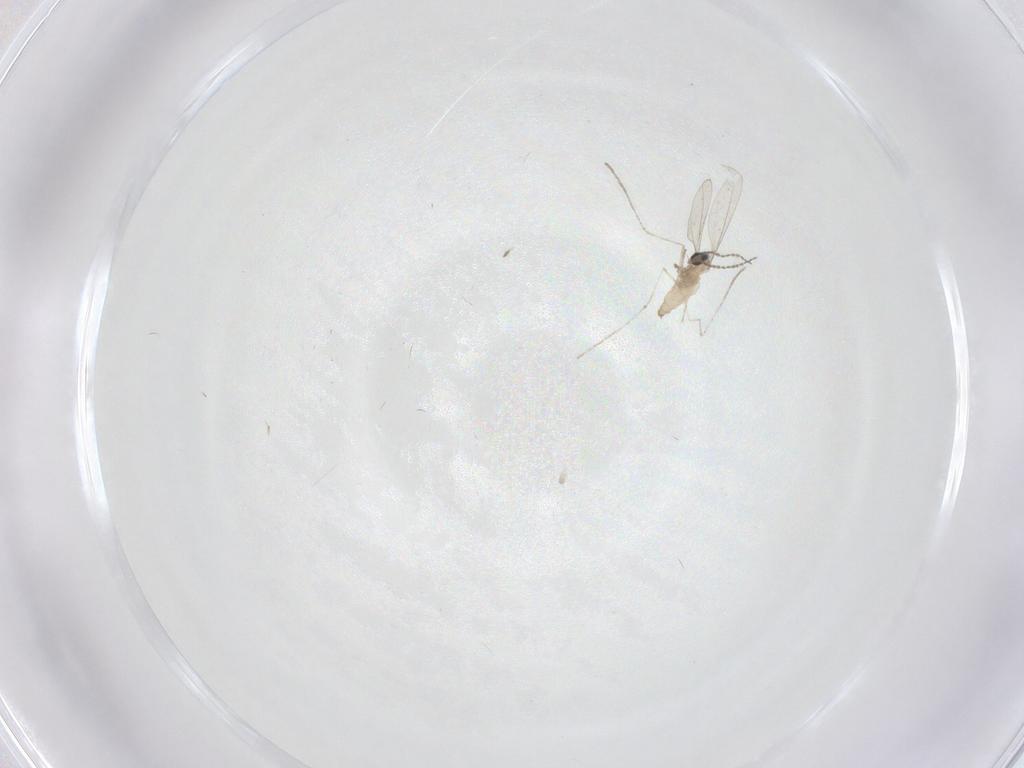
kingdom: Animalia
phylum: Arthropoda
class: Insecta
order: Diptera
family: Cecidomyiidae
